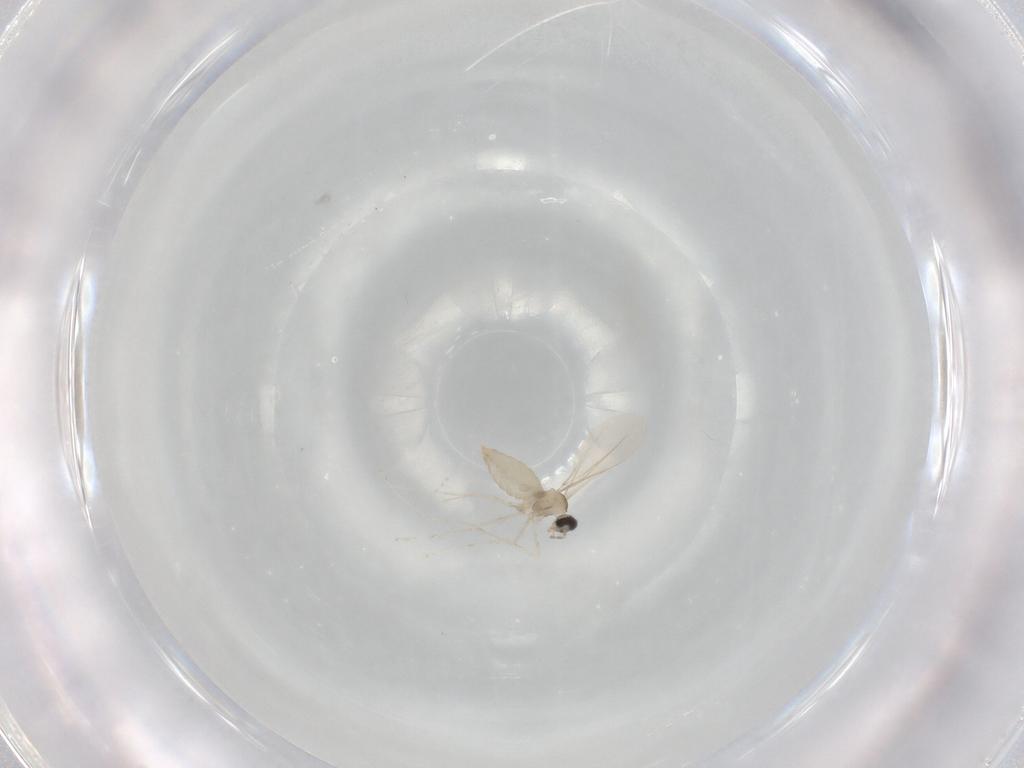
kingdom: Animalia
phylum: Arthropoda
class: Insecta
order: Diptera
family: Cecidomyiidae
